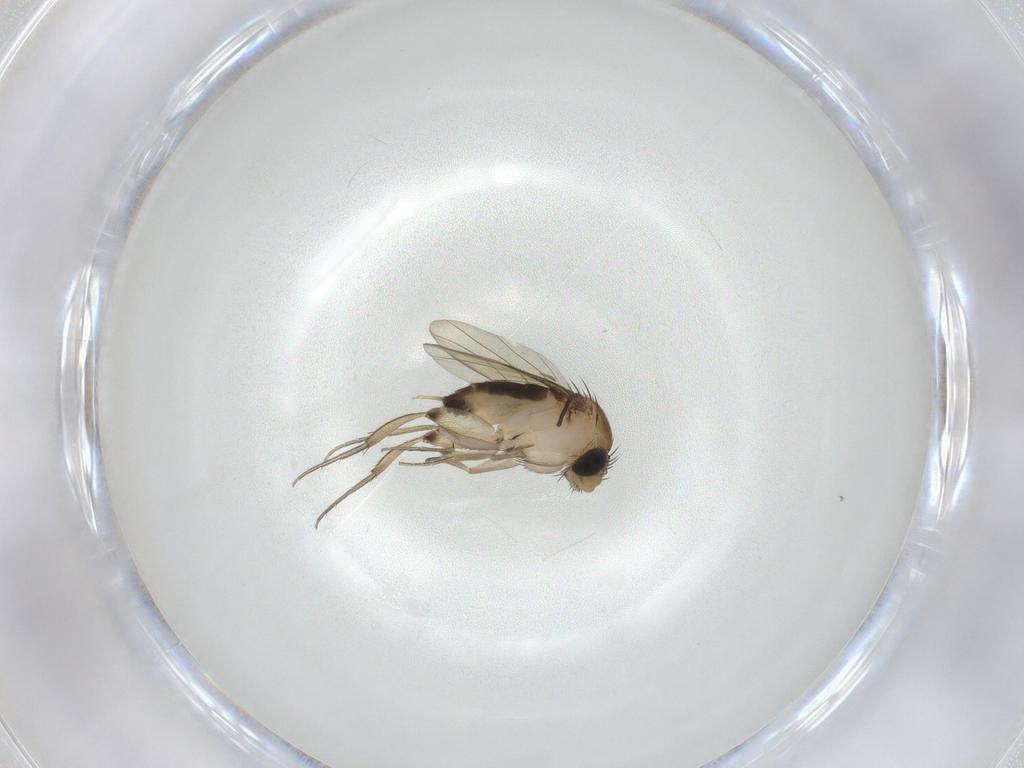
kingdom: Animalia
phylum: Arthropoda
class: Insecta
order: Diptera
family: Phoridae
